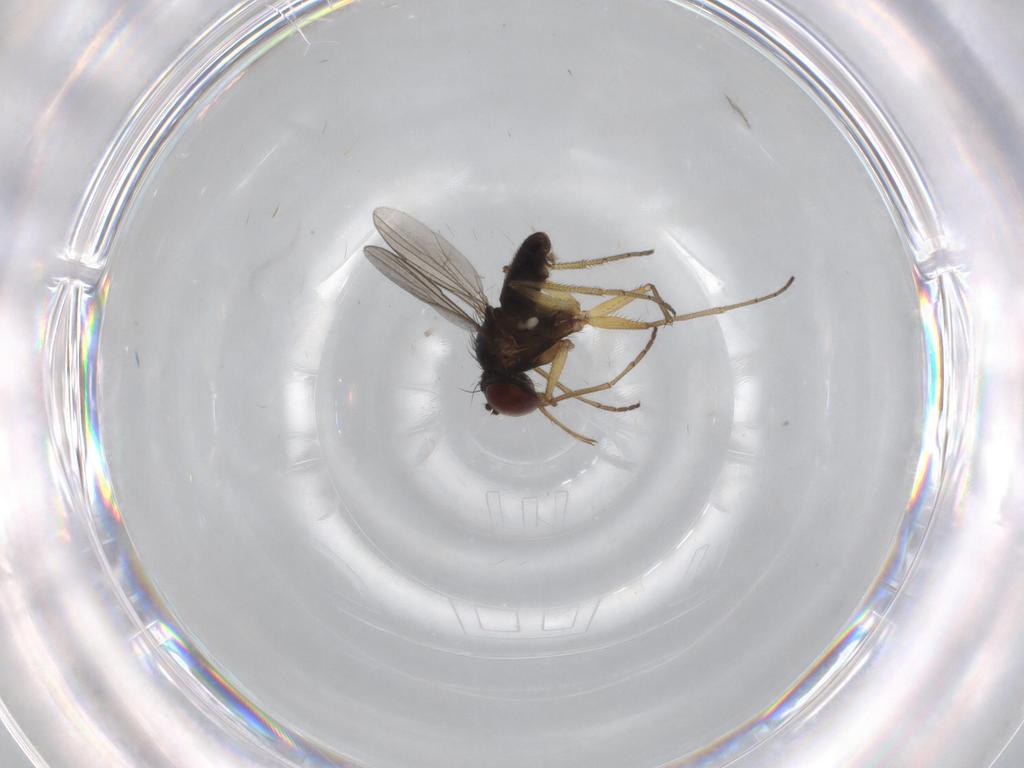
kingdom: Animalia
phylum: Arthropoda
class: Insecta
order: Diptera
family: Dolichopodidae
